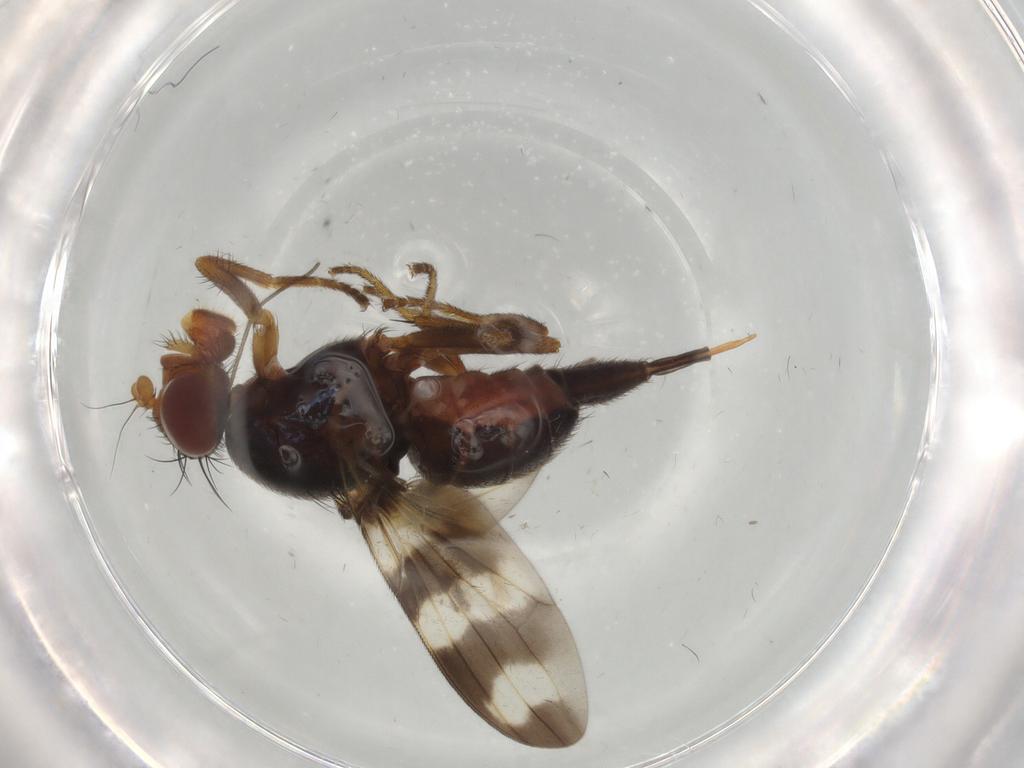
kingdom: Animalia
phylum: Arthropoda
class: Insecta
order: Diptera
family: Ulidiidae
